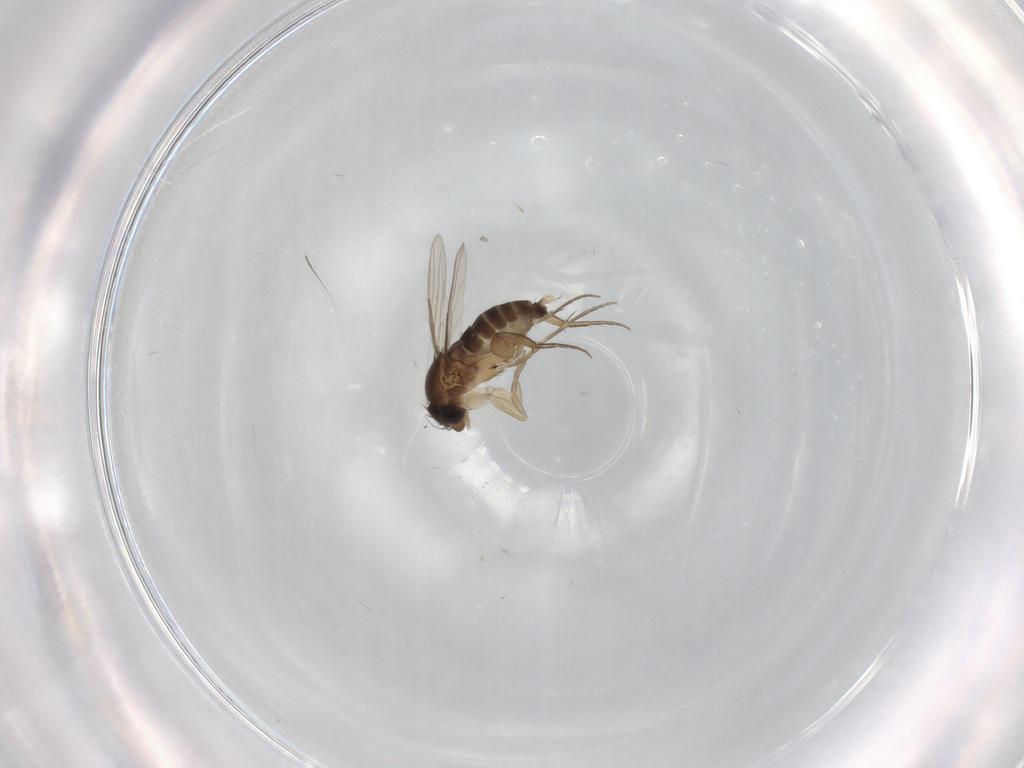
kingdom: Animalia
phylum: Arthropoda
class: Insecta
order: Diptera
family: Phoridae
